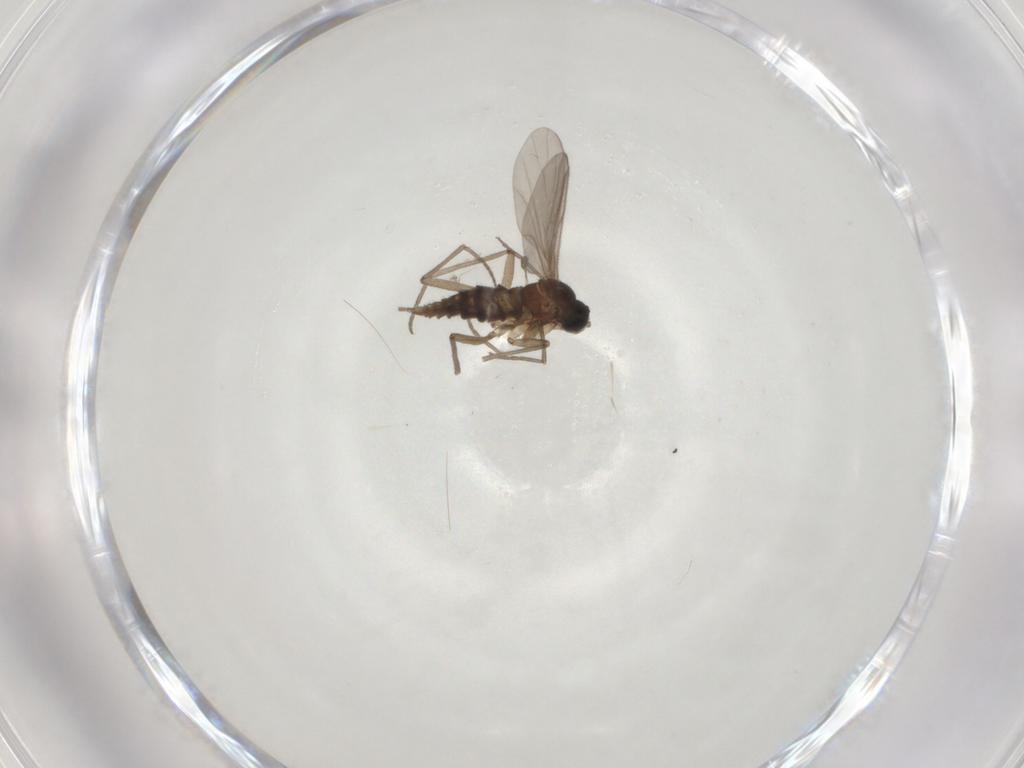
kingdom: Animalia
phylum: Arthropoda
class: Insecta
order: Diptera
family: Sciaridae
